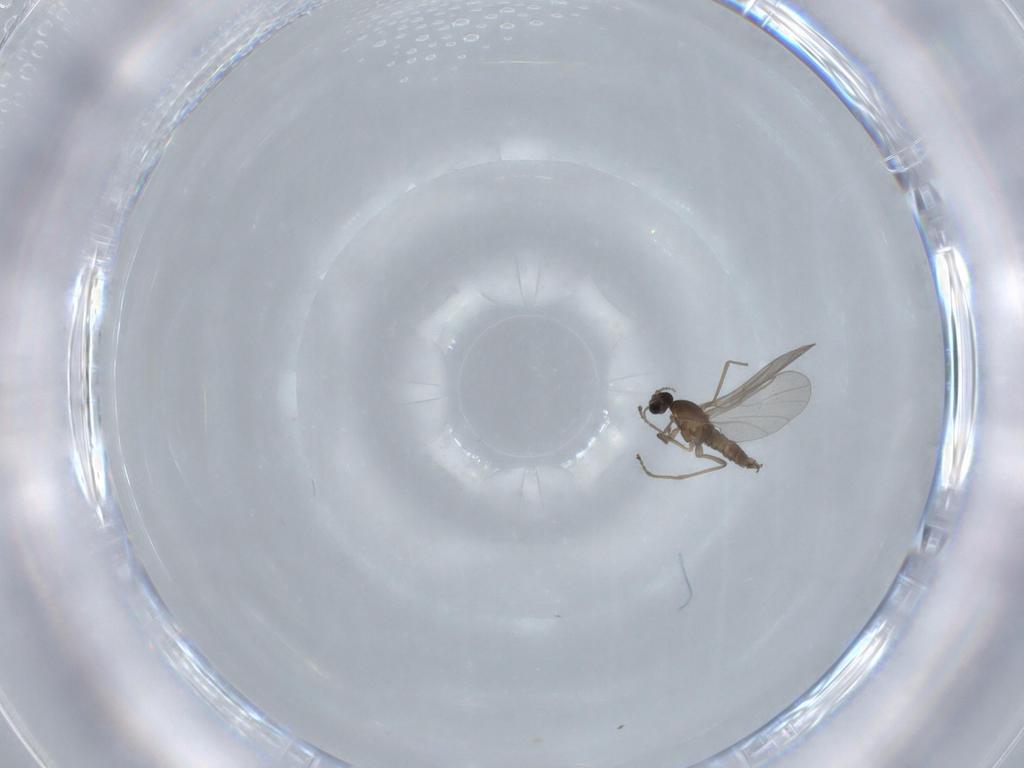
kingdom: Animalia
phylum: Arthropoda
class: Insecta
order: Diptera
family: Cecidomyiidae
